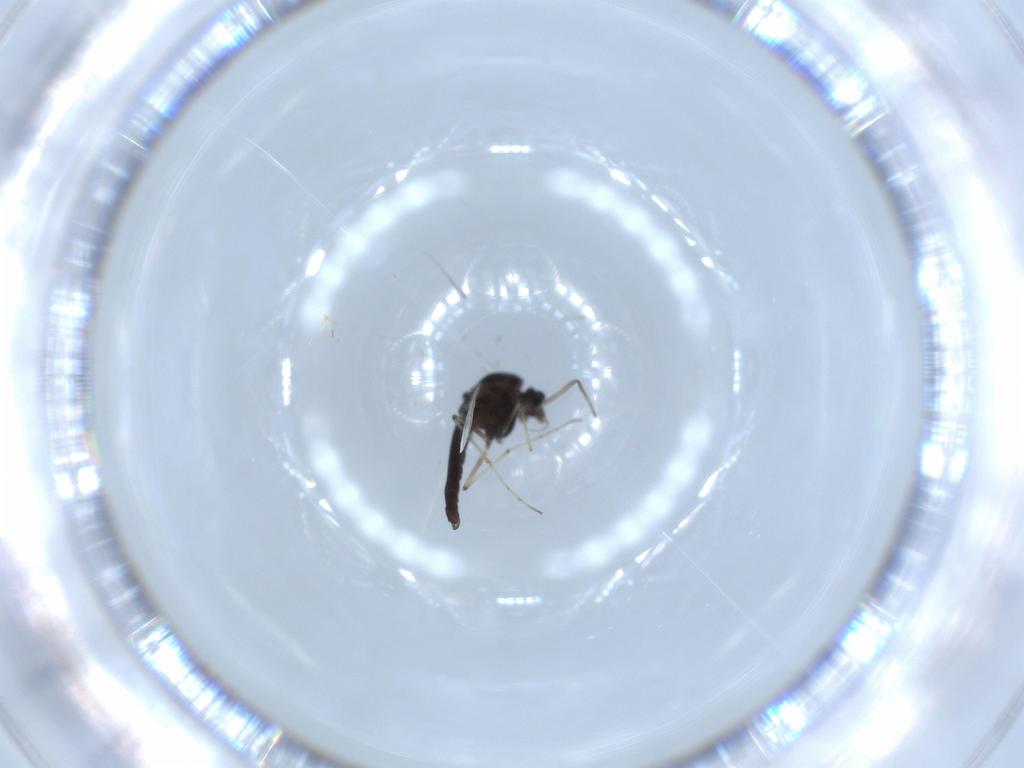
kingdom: Animalia
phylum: Arthropoda
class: Insecta
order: Diptera
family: Chironomidae
